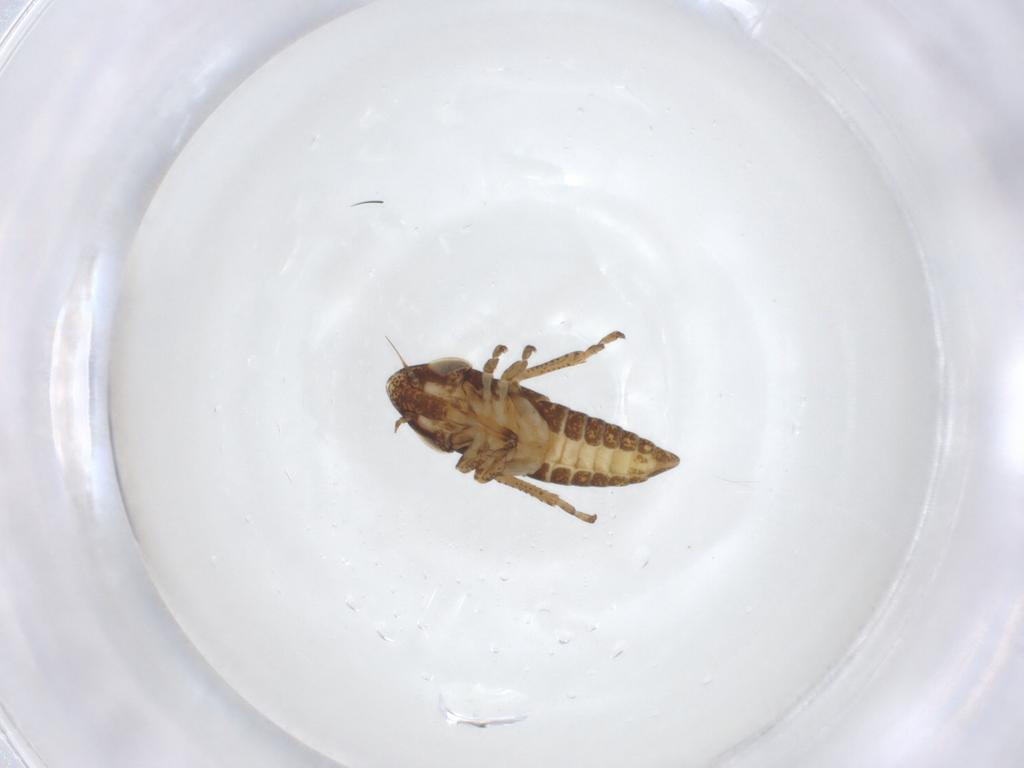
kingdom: Animalia
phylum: Arthropoda
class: Insecta
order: Hemiptera
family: Cicadellidae
